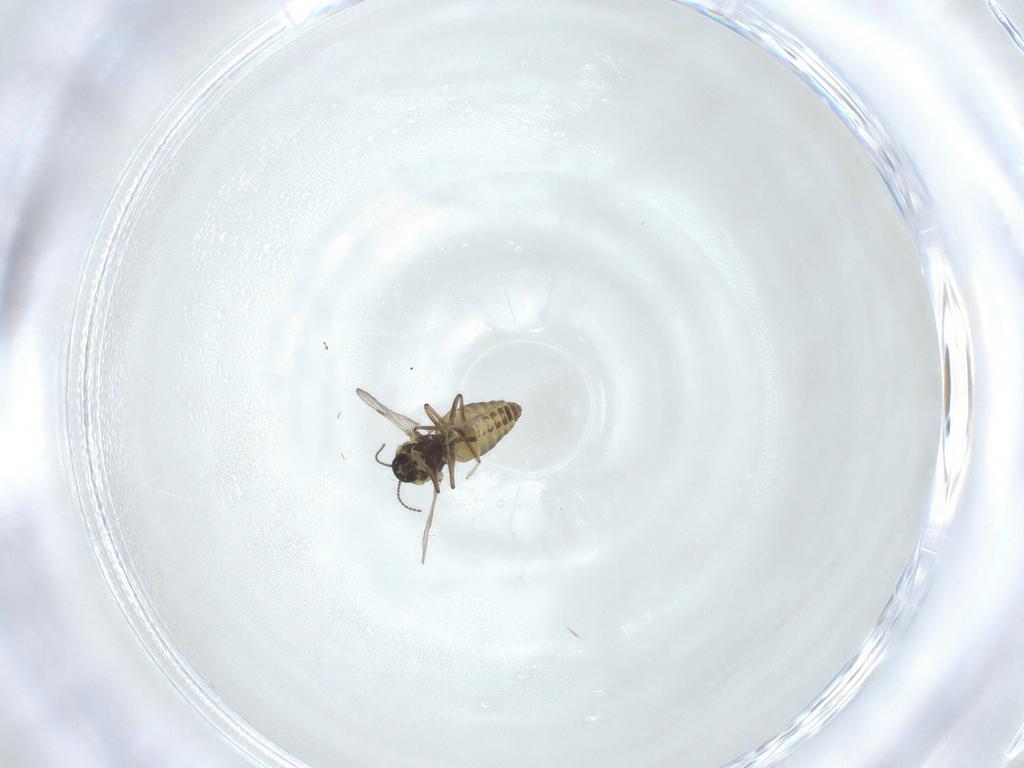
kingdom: Animalia
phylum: Arthropoda
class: Insecta
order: Diptera
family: Ceratopogonidae
